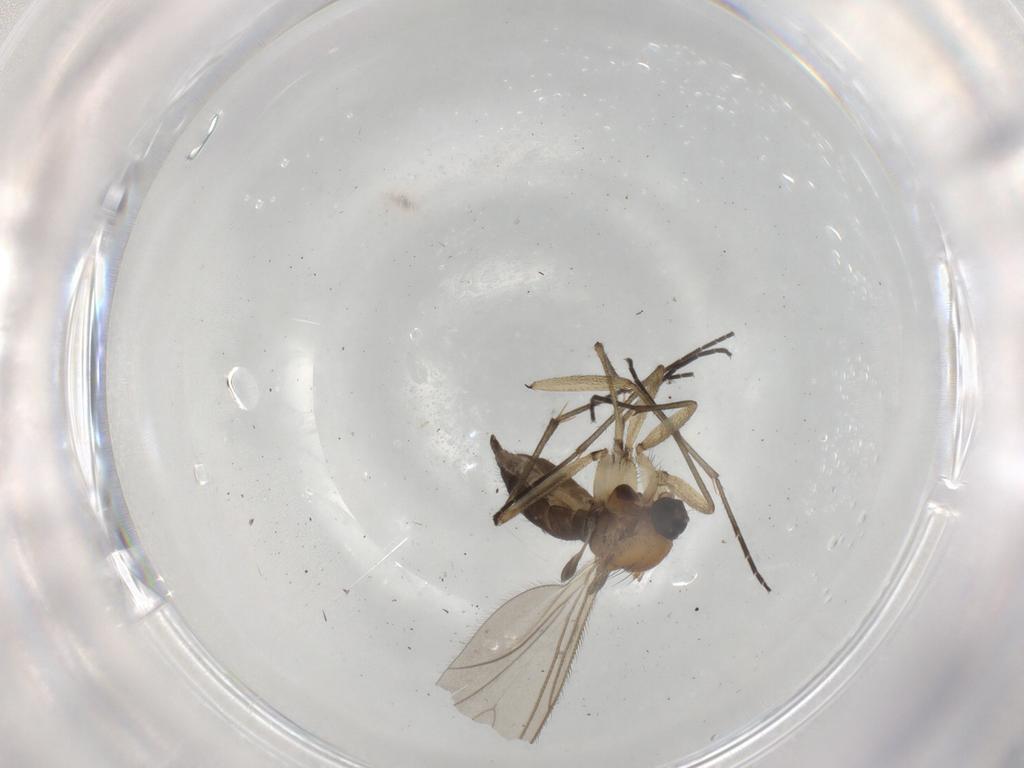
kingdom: Animalia
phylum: Arthropoda
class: Insecta
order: Diptera
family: Sciaridae
